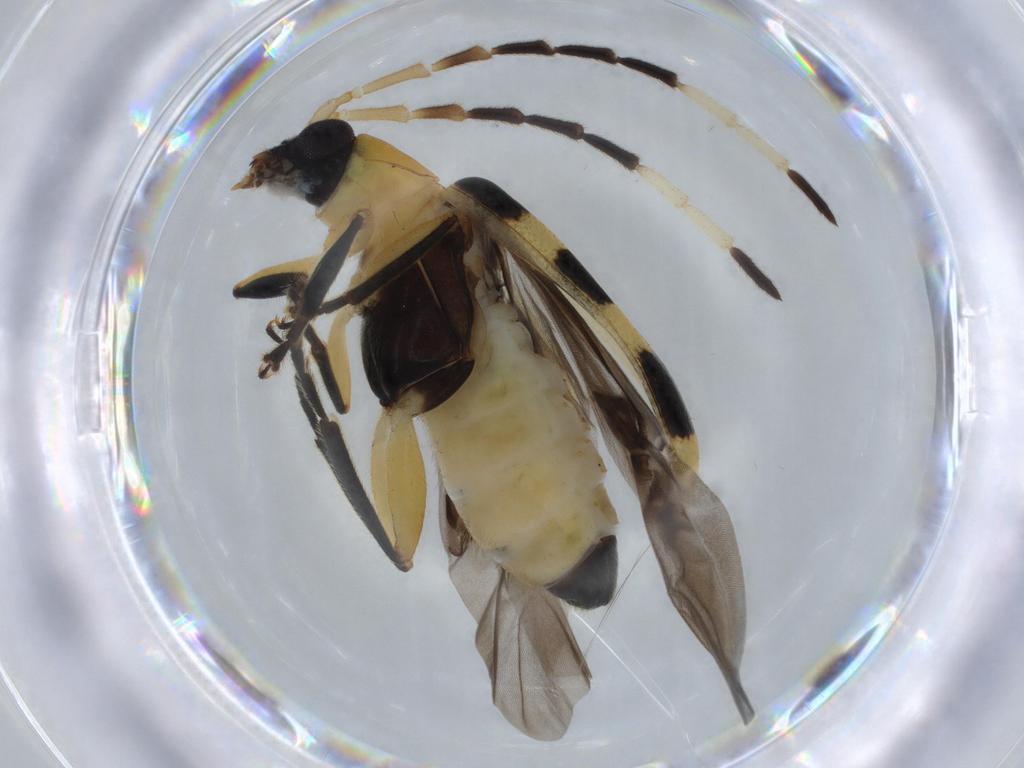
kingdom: Animalia
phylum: Arthropoda
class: Insecta
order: Coleoptera
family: Chrysomelidae
